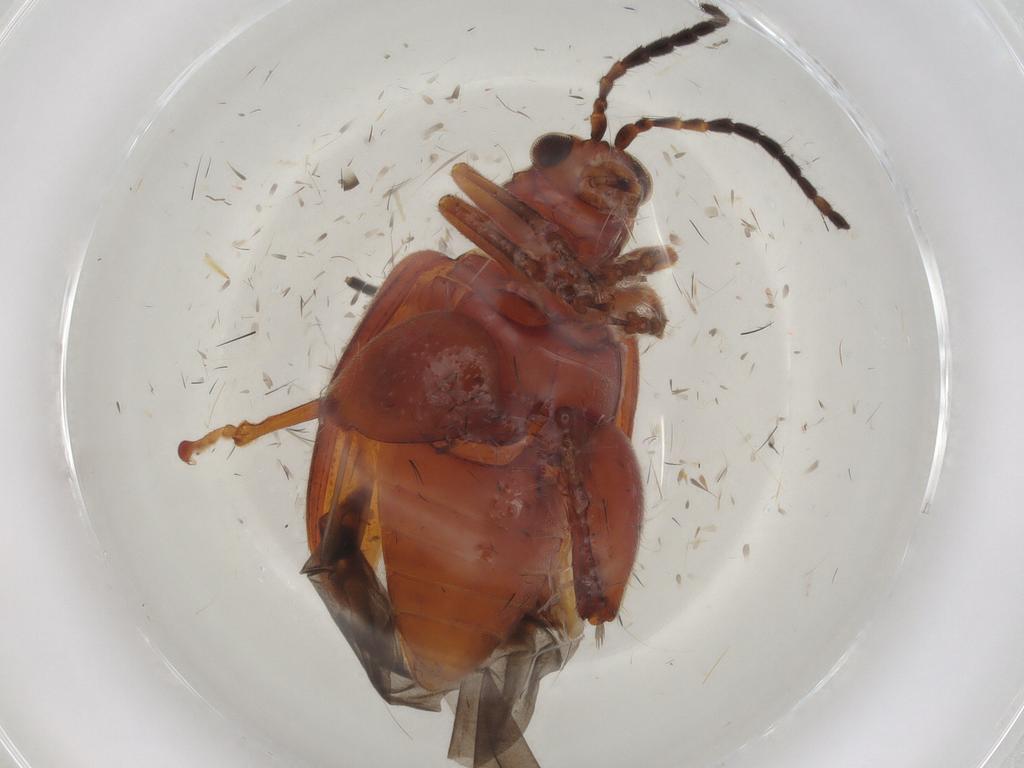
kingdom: Animalia
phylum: Arthropoda
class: Insecta
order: Coleoptera
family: Chrysomelidae
